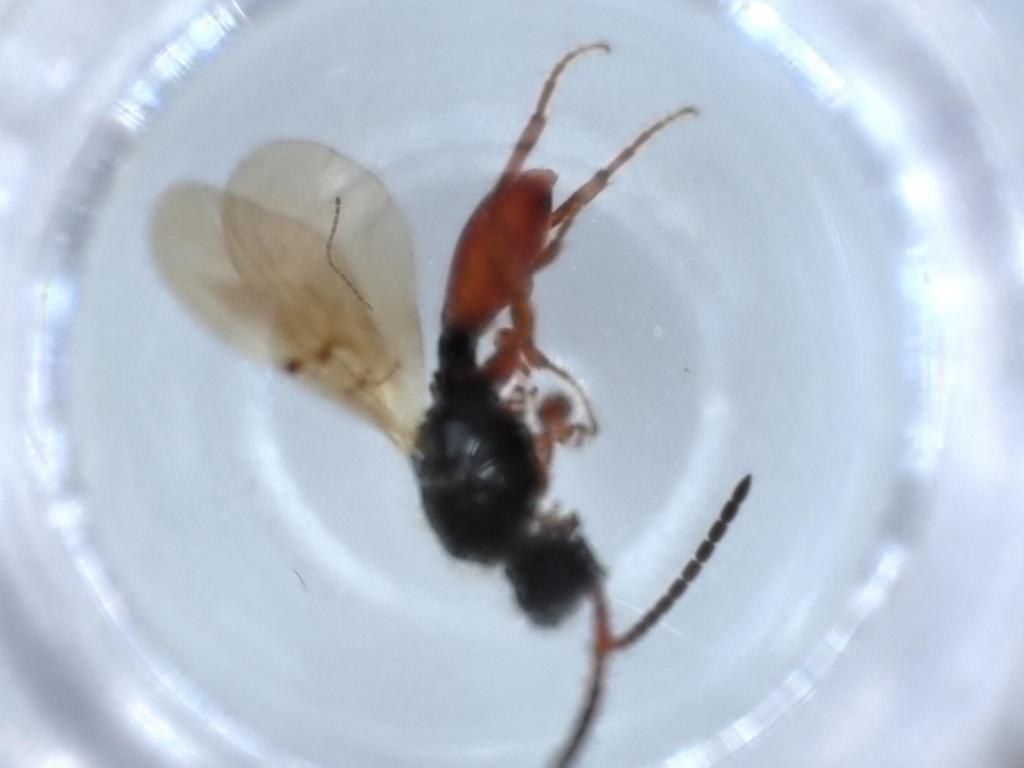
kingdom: Animalia
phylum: Arthropoda
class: Insecta
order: Hymenoptera
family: Diapriidae
